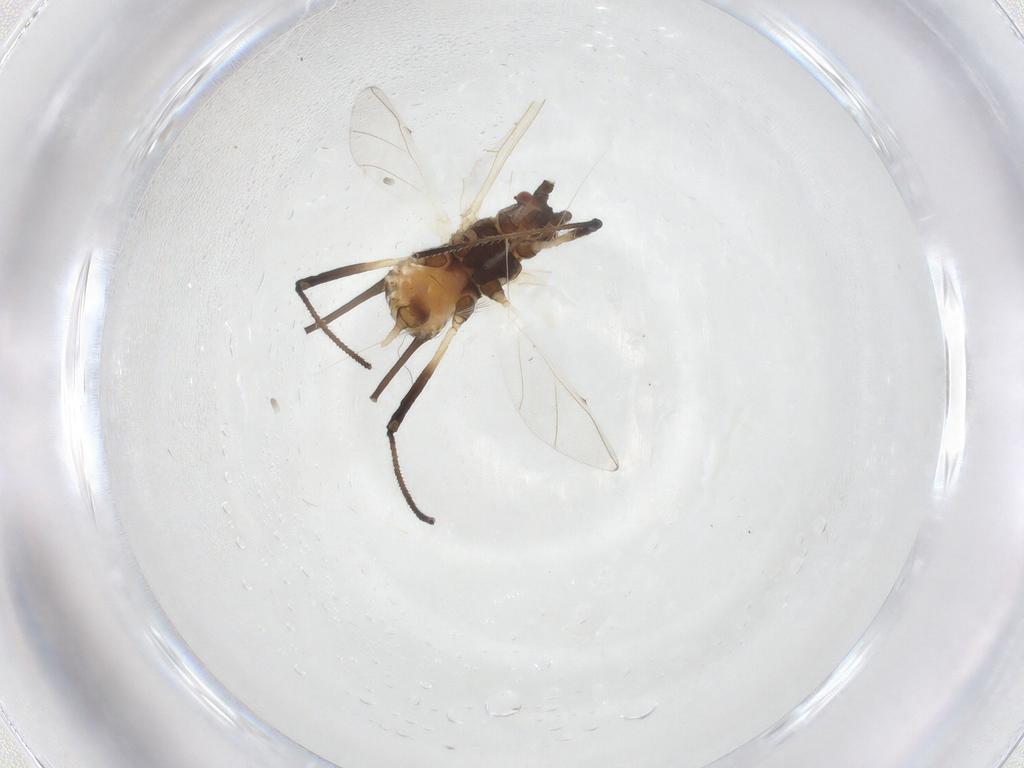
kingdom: Animalia
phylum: Arthropoda
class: Insecta
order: Hemiptera
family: Aphididae
